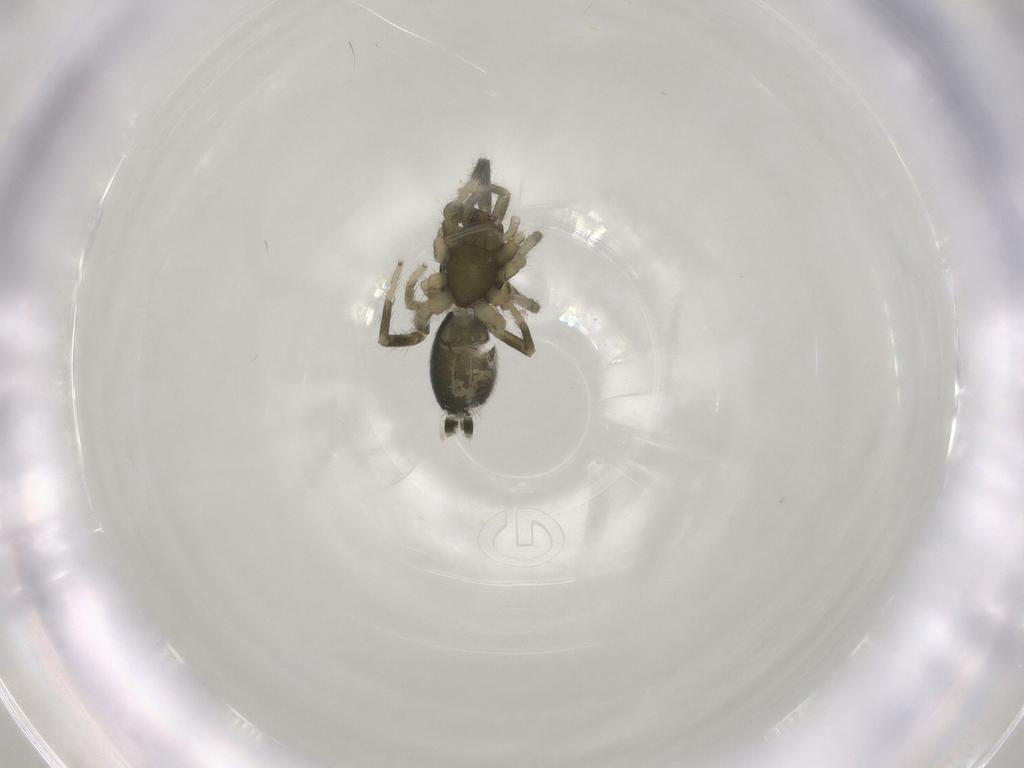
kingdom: Animalia
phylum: Arthropoda
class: Arachnida
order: Araneae
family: Gnaphosidae
